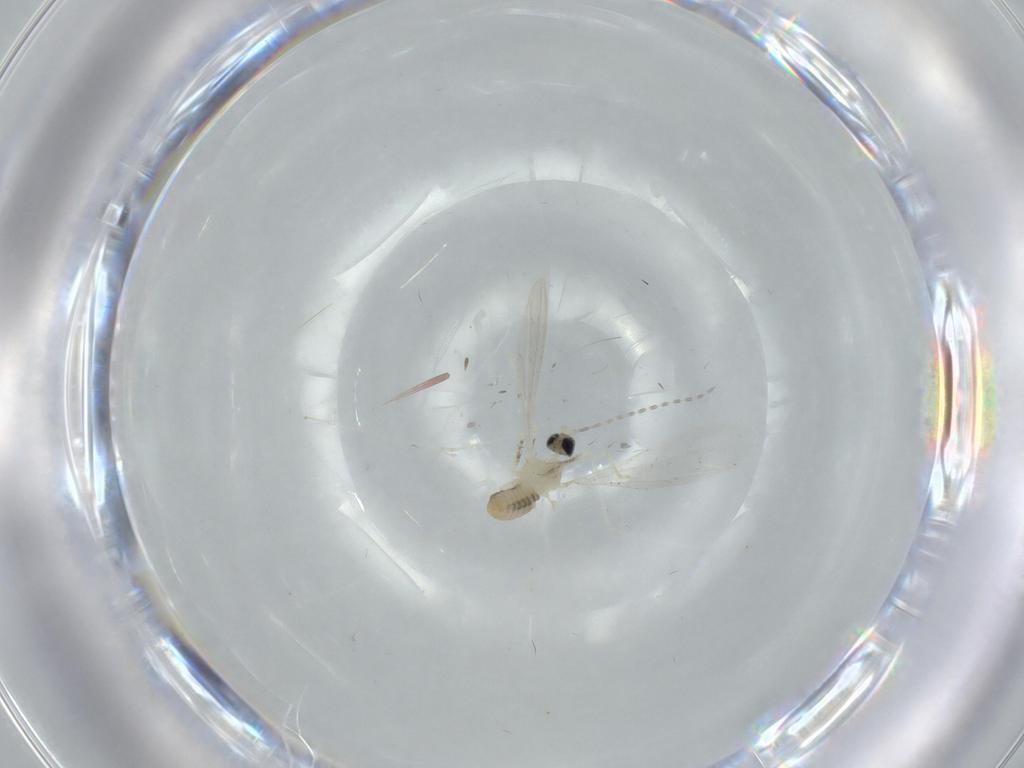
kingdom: Animalia
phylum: Arthropoda
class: Insecta
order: Diptera
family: Cecidomyiidae
